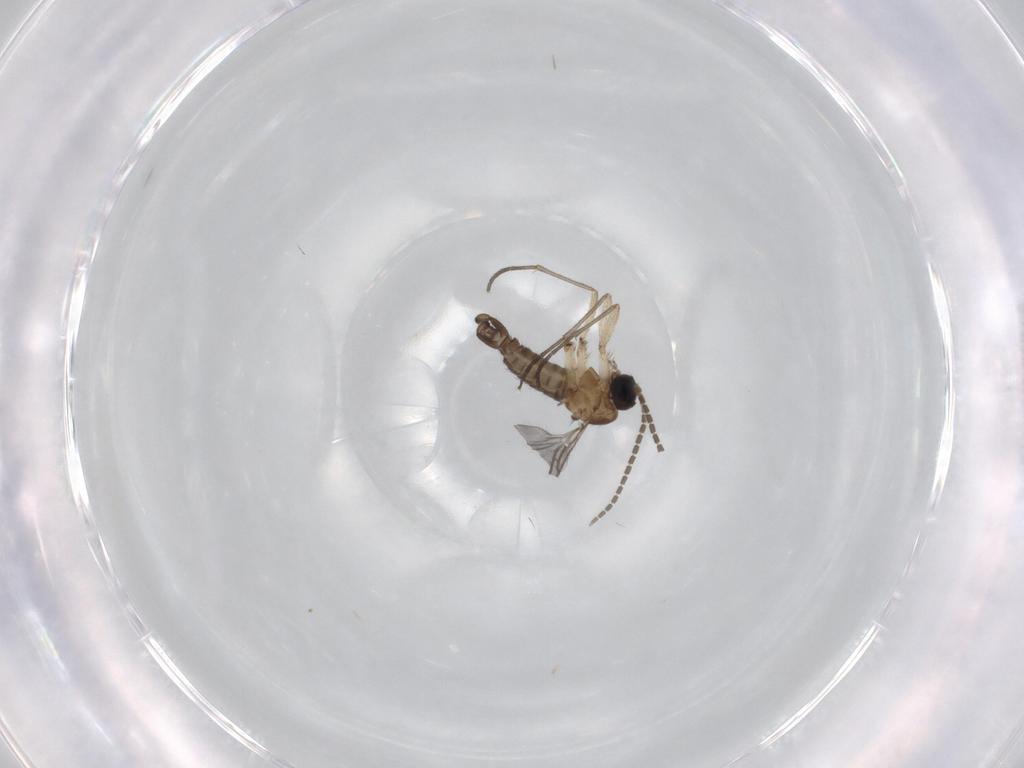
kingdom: Animalia
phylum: Arthropoda
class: Insecta
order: Diptera
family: Sciaridae
